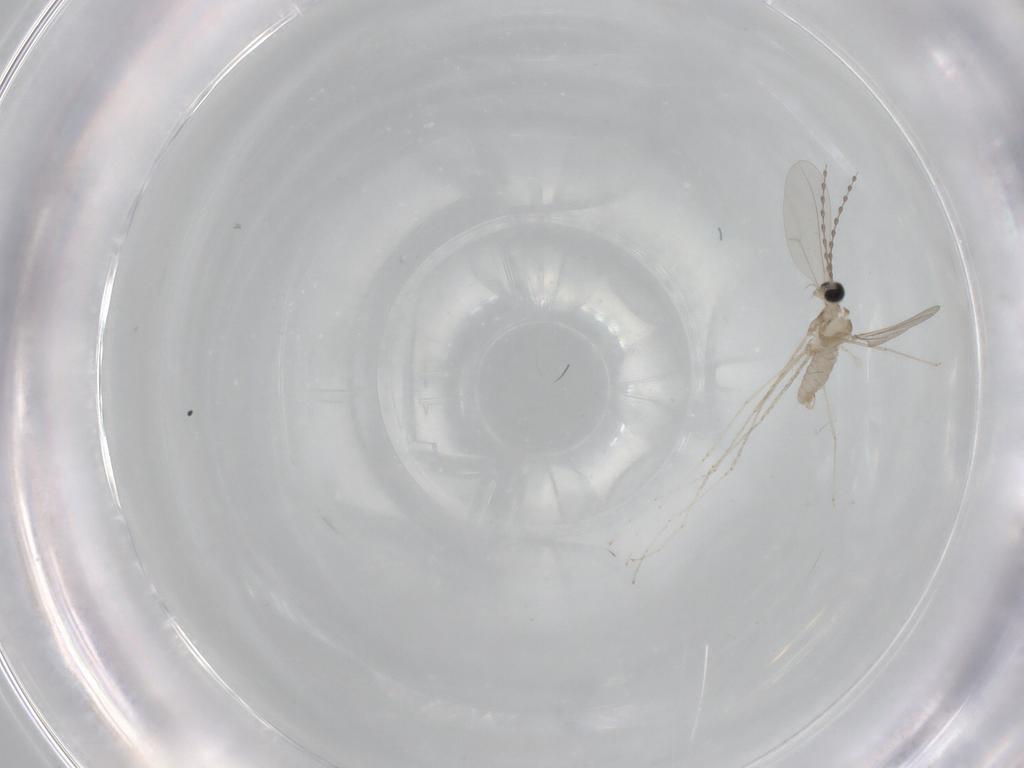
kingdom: Animalia
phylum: Arthropoda
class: Insecta
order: Diptera
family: Cecidomyiidae
